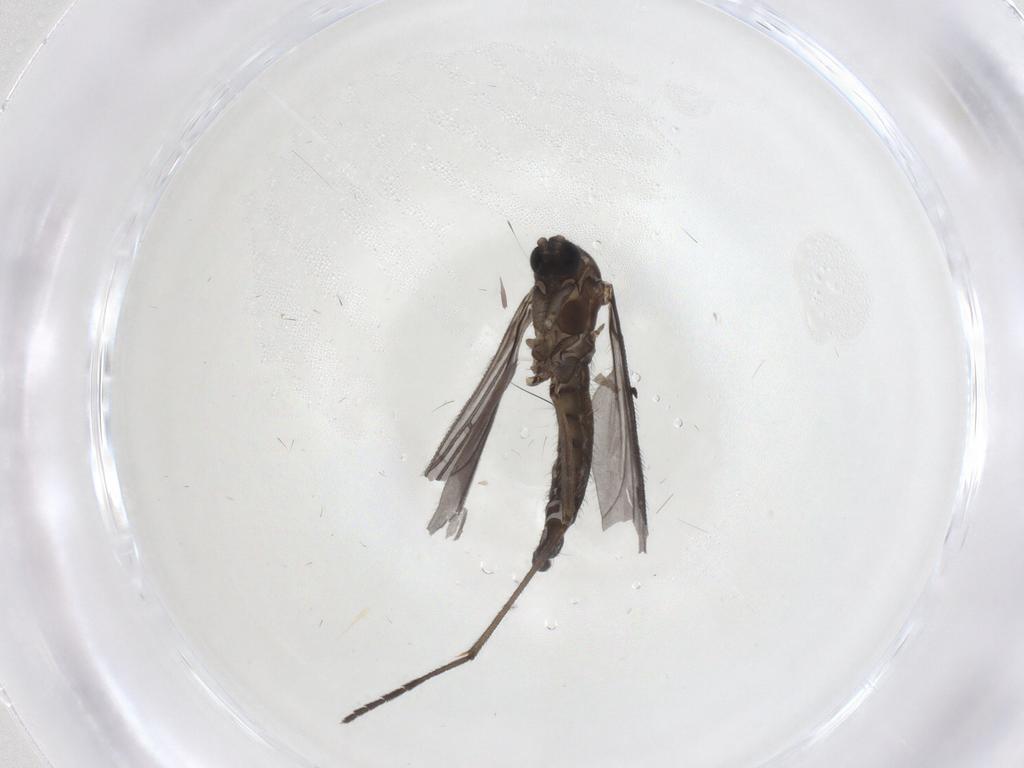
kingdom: Animalia
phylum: Arthropoda
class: Insecta
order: Diptera
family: Sciaridae
